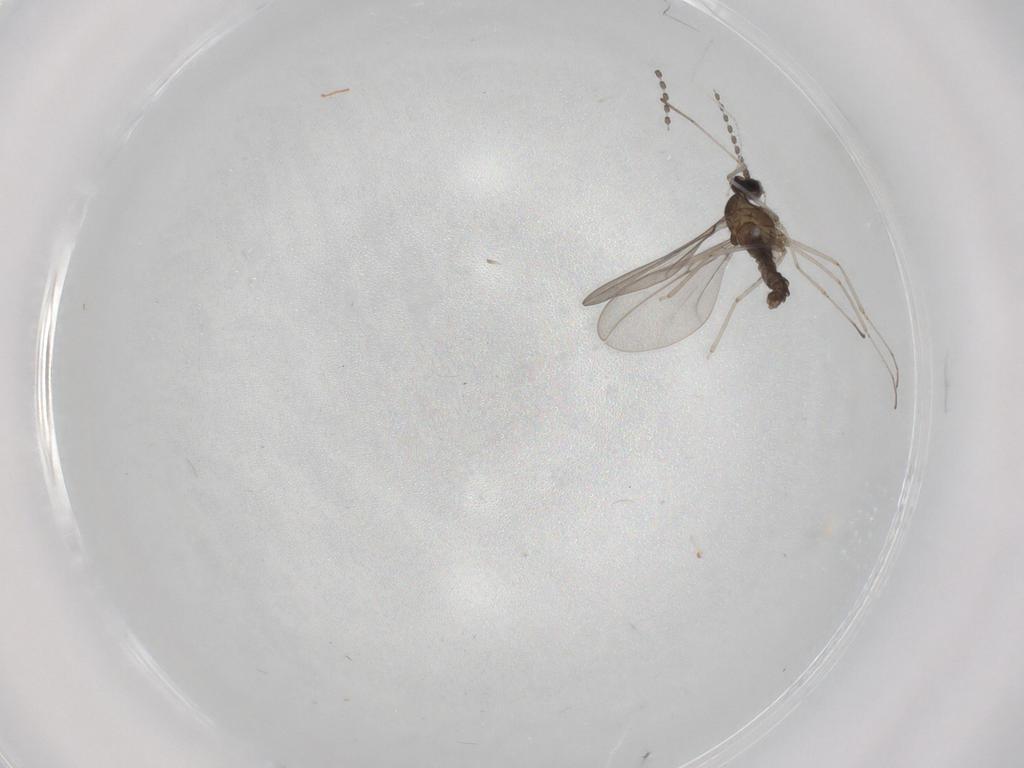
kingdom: Animalia
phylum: Arthropoda
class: Insecta
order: Diptera
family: Cecidomyiidae
